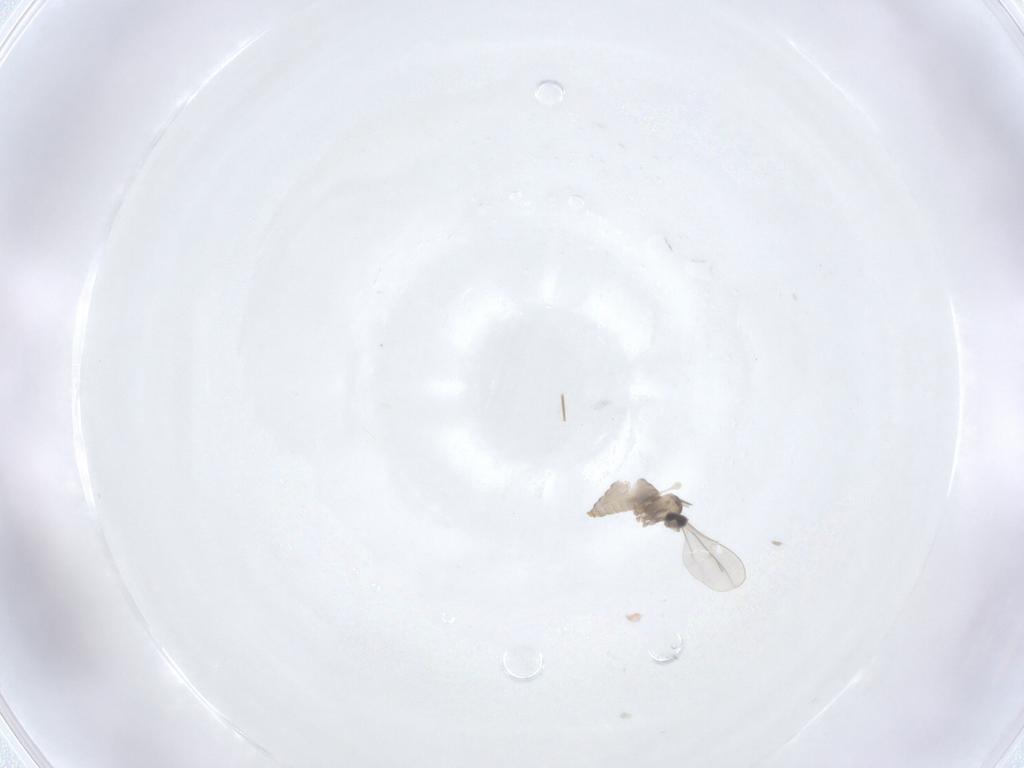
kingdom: Animalia
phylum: Arthropoda
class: Insecta
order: Diptera
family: Cecidomyiidae
